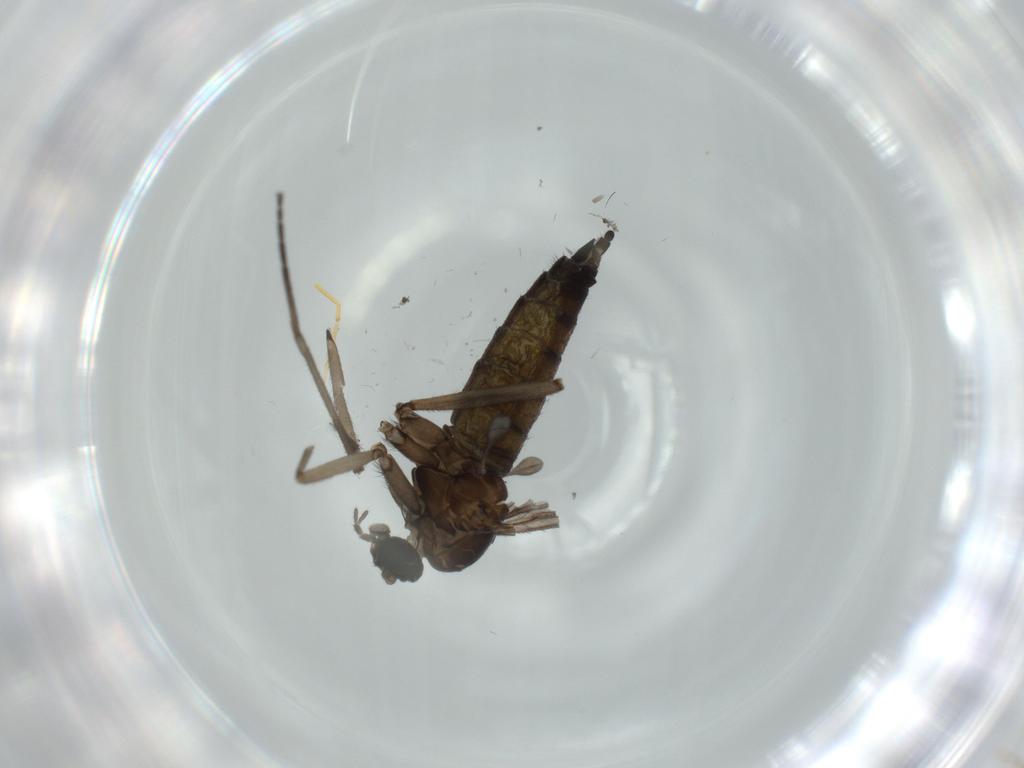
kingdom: Animalia
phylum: Arthropoda
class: Insecta
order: Diptera
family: Sciaridae
